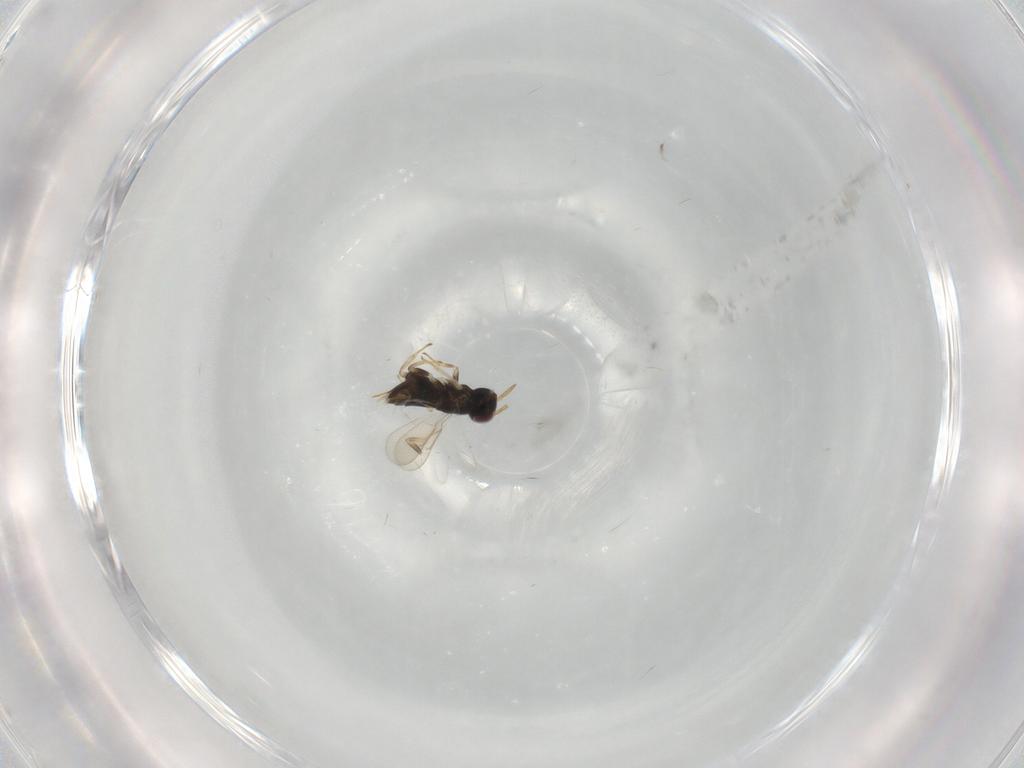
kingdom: Animalia
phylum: Arthropoda
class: Insecta
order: Hymenoptera
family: Aphelinidae
